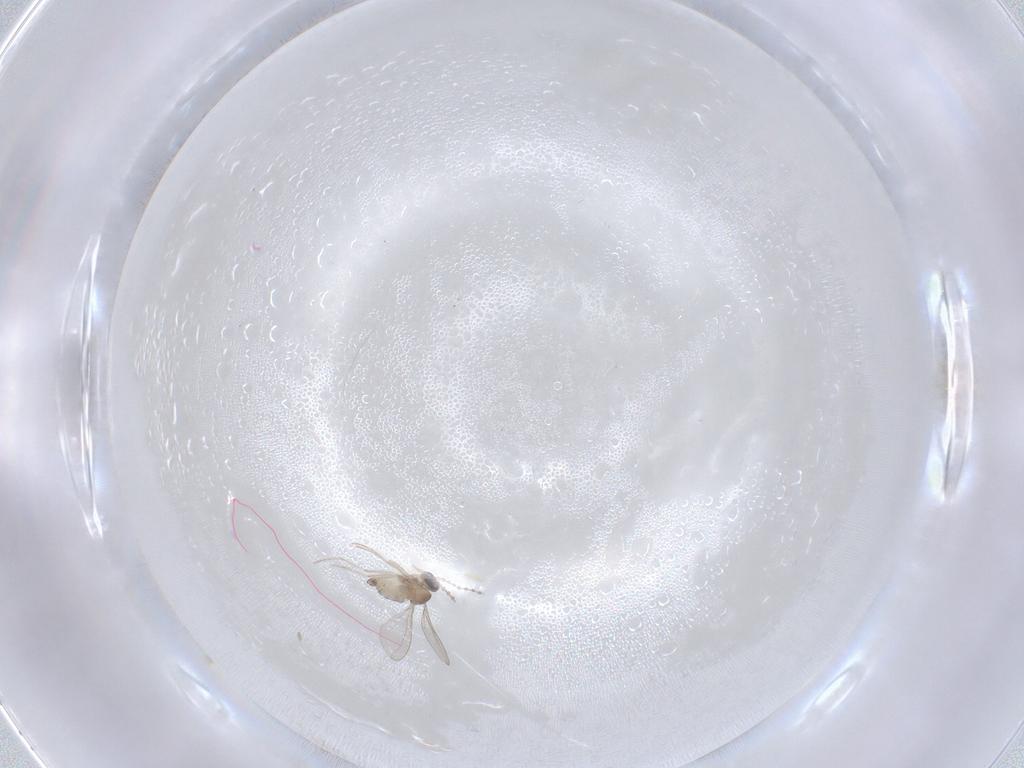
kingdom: Animalia
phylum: Arthropoda
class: Insecta
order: Diptera
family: Cecidomyiidae
